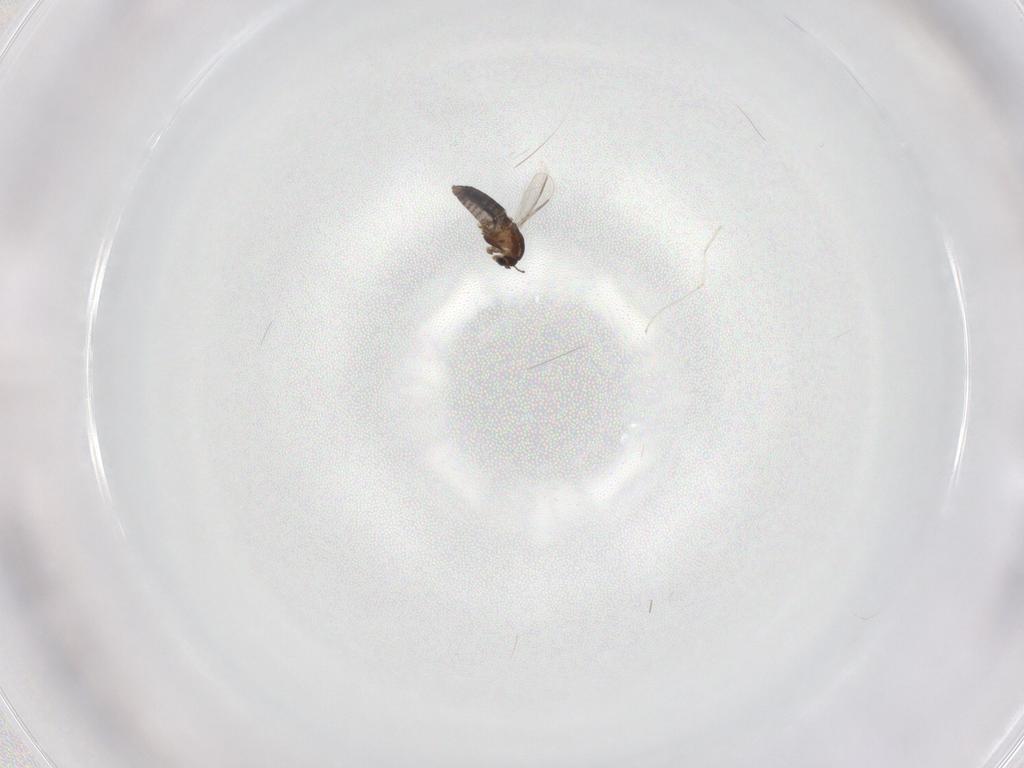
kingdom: Animalia
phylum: Arthropoda
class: Insecta
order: Diptera
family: Chironomidae
